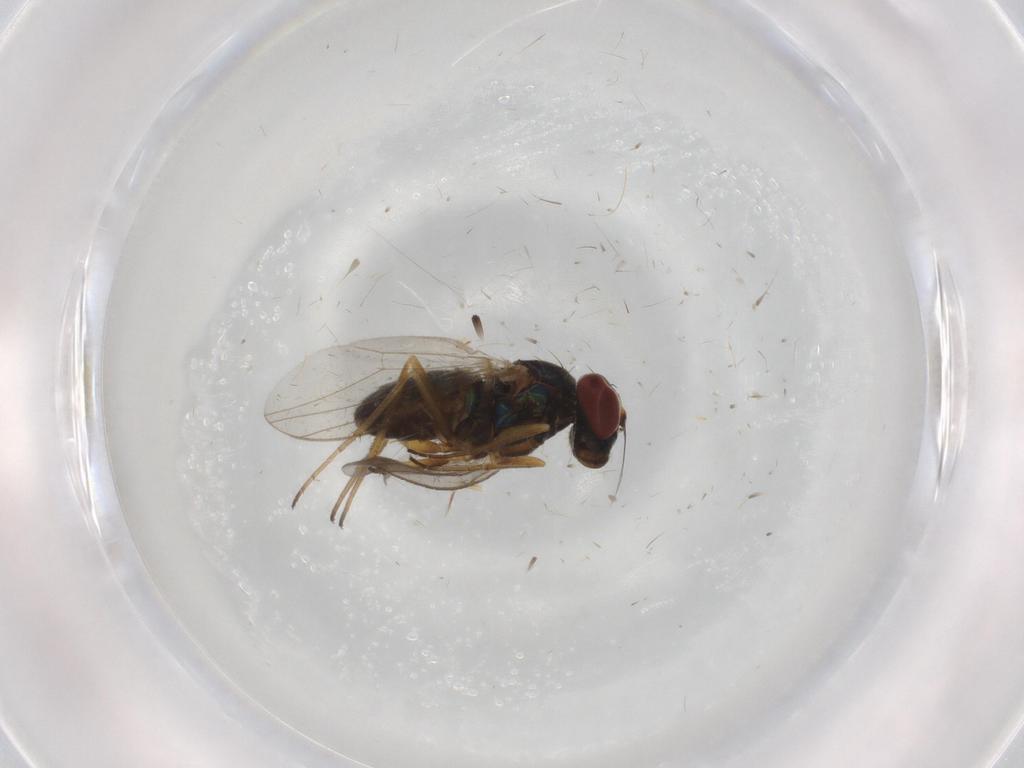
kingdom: Animalia
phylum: Arthropoda
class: Insecta
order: Diptera
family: Dolichopodidae
